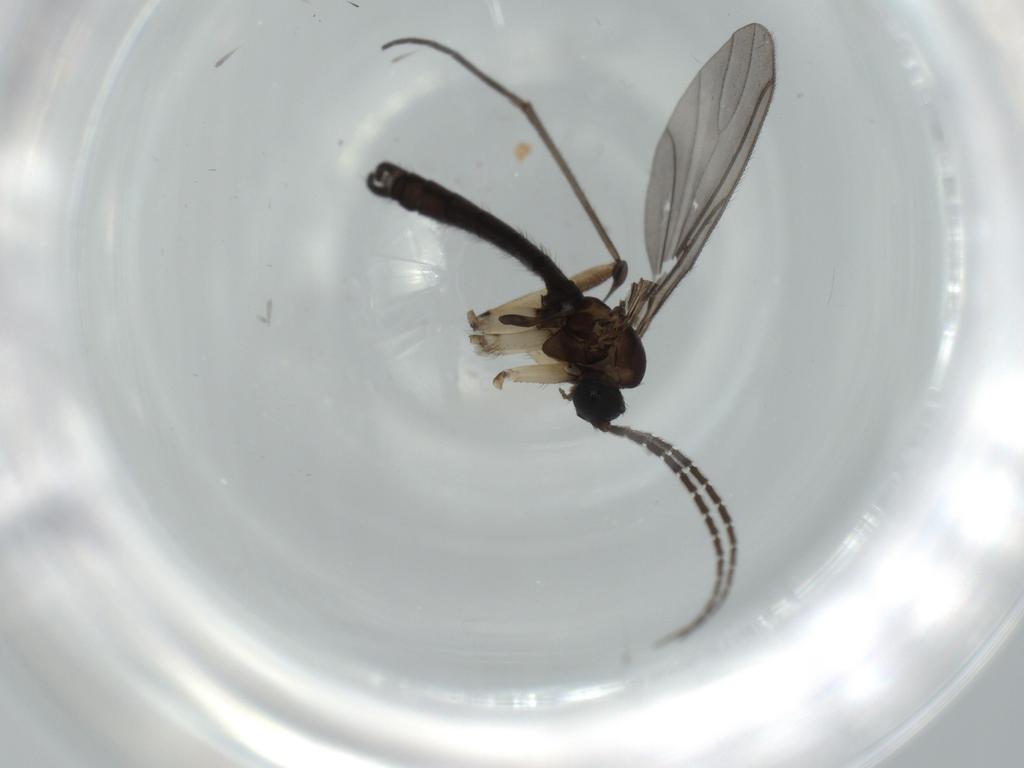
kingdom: Animalia
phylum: Arthropoda
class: Insecta
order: Diptera
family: Sciaridae
